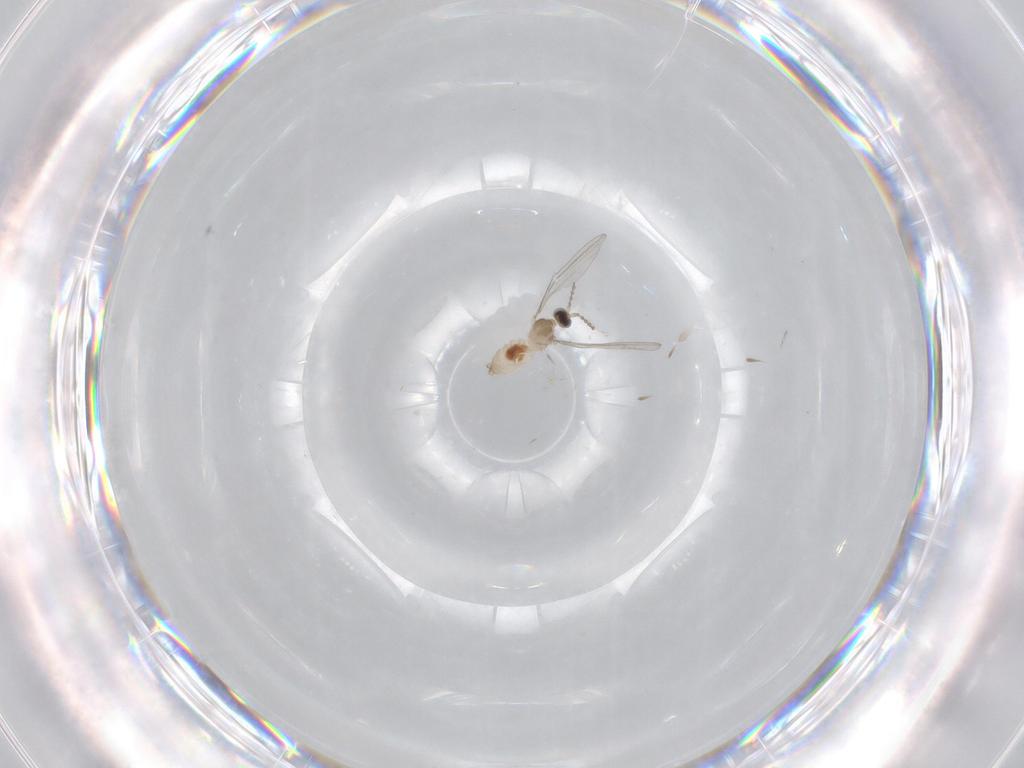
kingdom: Animalia
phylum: Arthropoda
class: Insecta
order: Diptera
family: Cecidomyiidae
